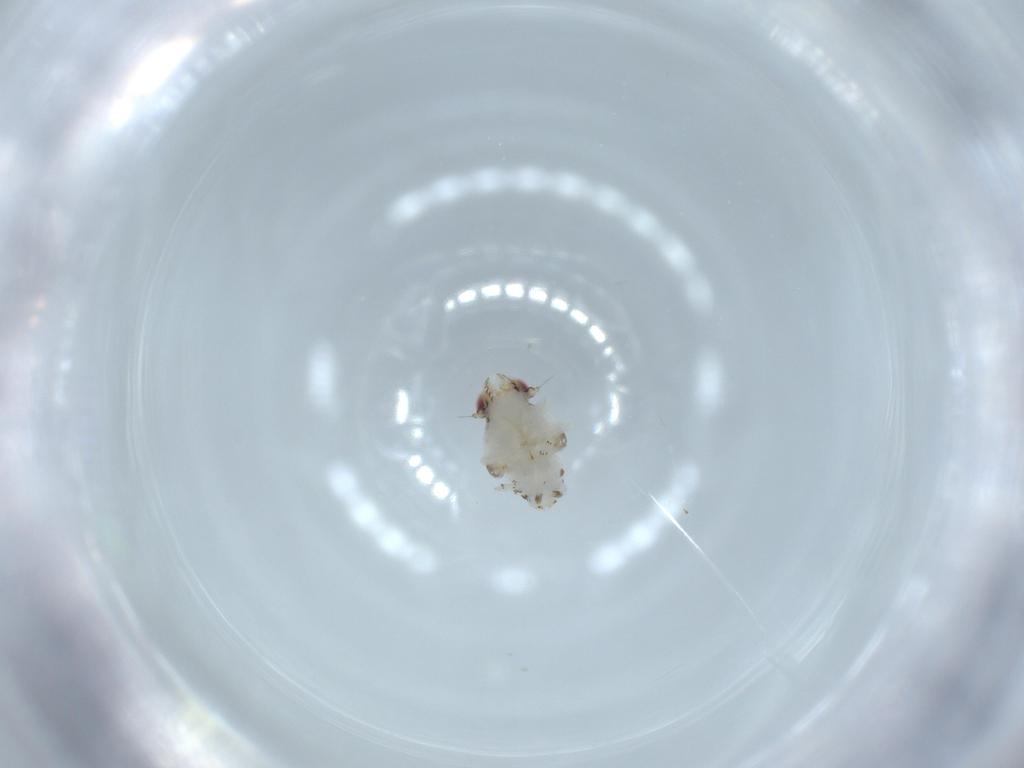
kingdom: Animalia
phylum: Arthropoda
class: Insecta
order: Hemiptera
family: Nogodinidae
